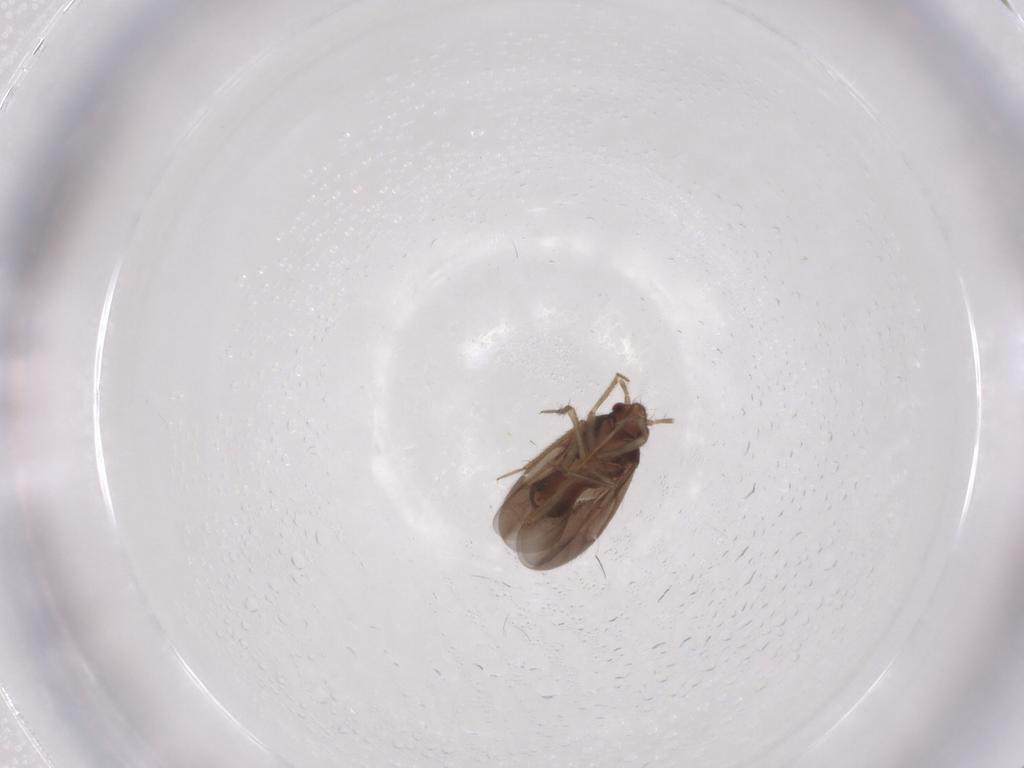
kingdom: Animalia
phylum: Arthropoda
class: Insecta
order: Hemiptera
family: Ceratocombidae
